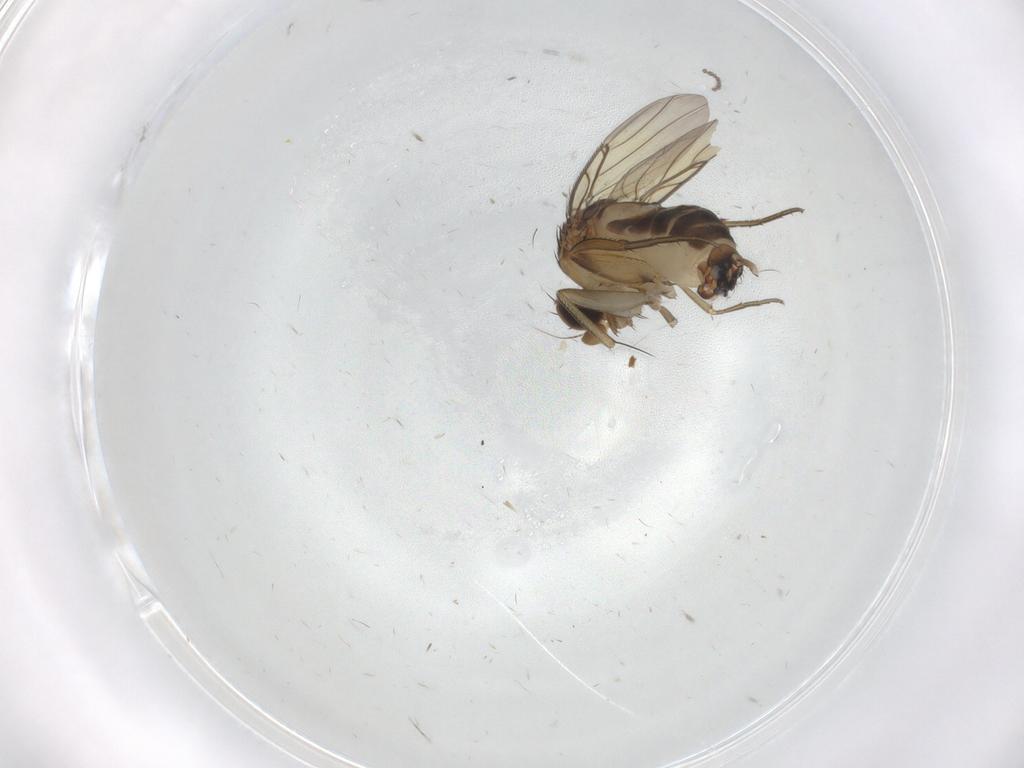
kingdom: Animalia
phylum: Arthropoda
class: Insecta
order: Diptera
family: Phoridae
